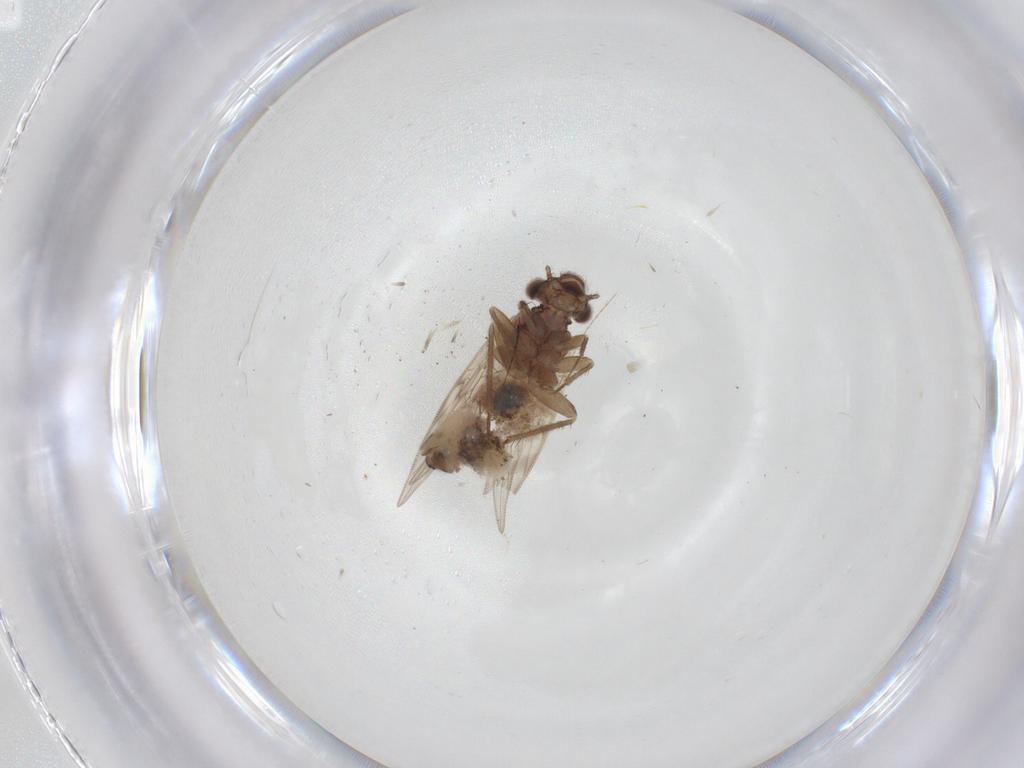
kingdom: Animalia
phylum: Arthropoda
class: Insecta
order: Psocodea
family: Lepidopsocidae
